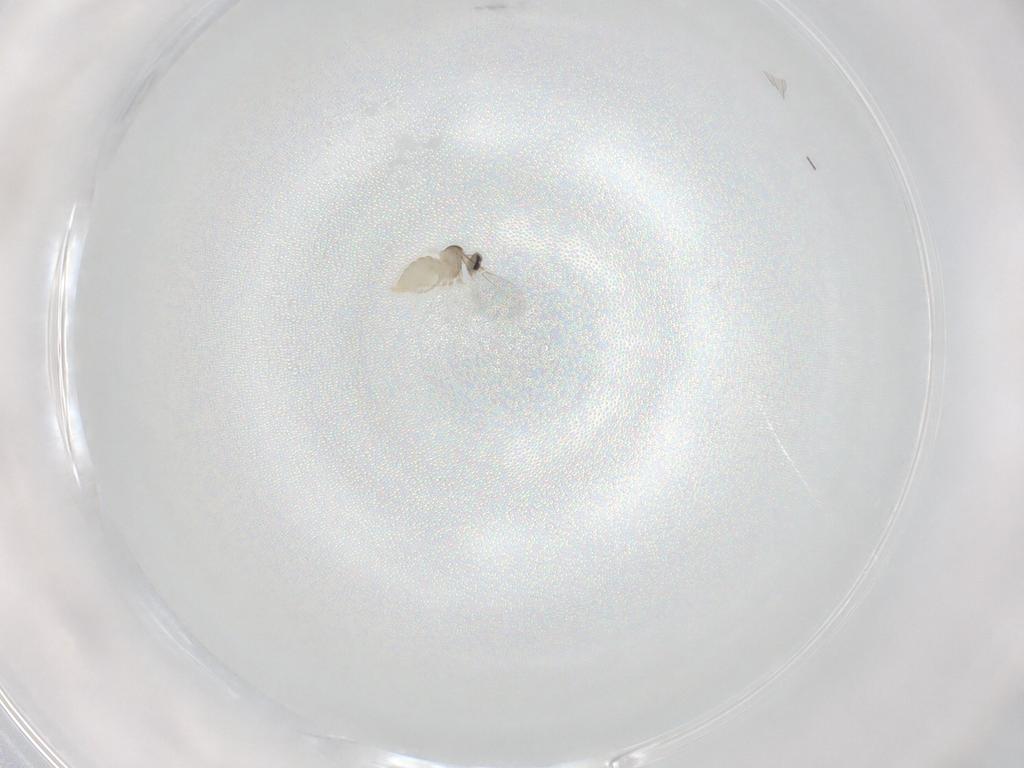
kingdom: Animalia
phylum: Arthropoda
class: Insecta
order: Diptera
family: Cecidomyiidae
